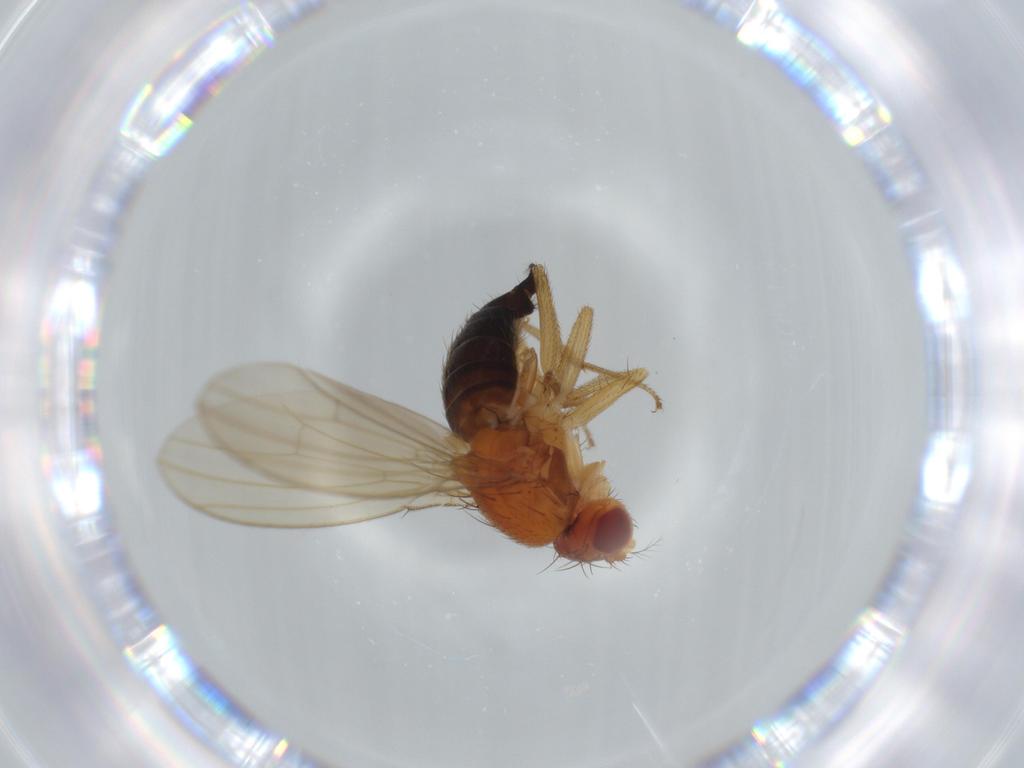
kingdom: Animalia
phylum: Arthropoda
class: Insecta
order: Diptera
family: Drosophilidae
